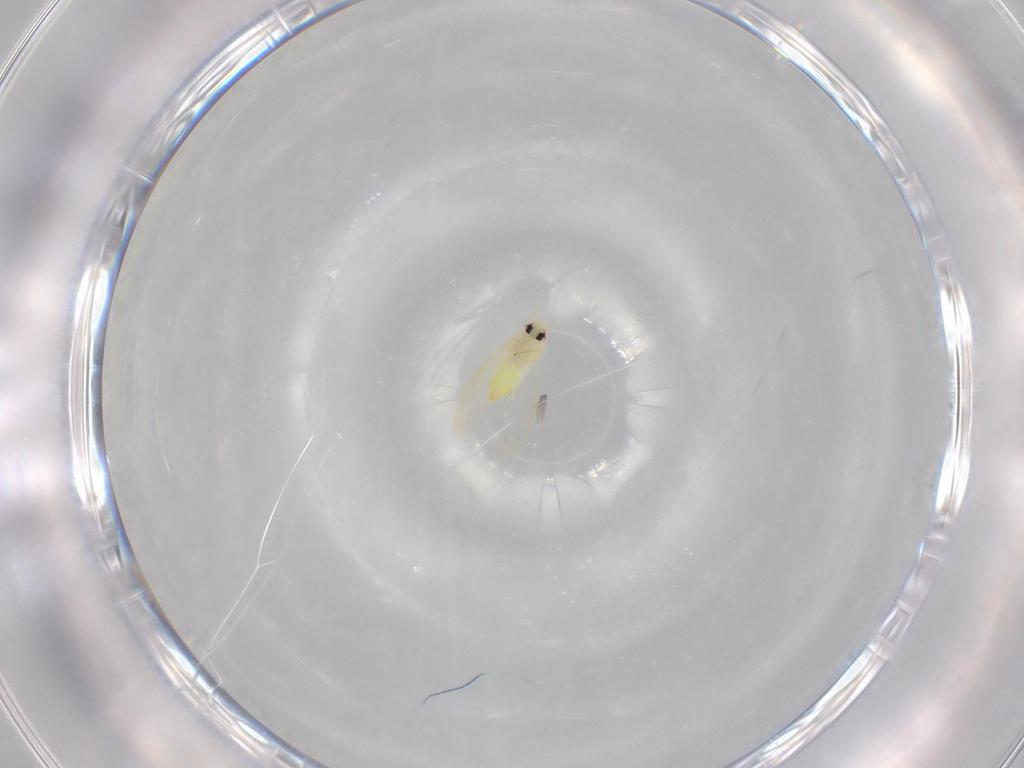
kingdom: Animalia
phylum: Arthropoda
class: Insecta
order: Hemiptera
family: Aleyrodidae
